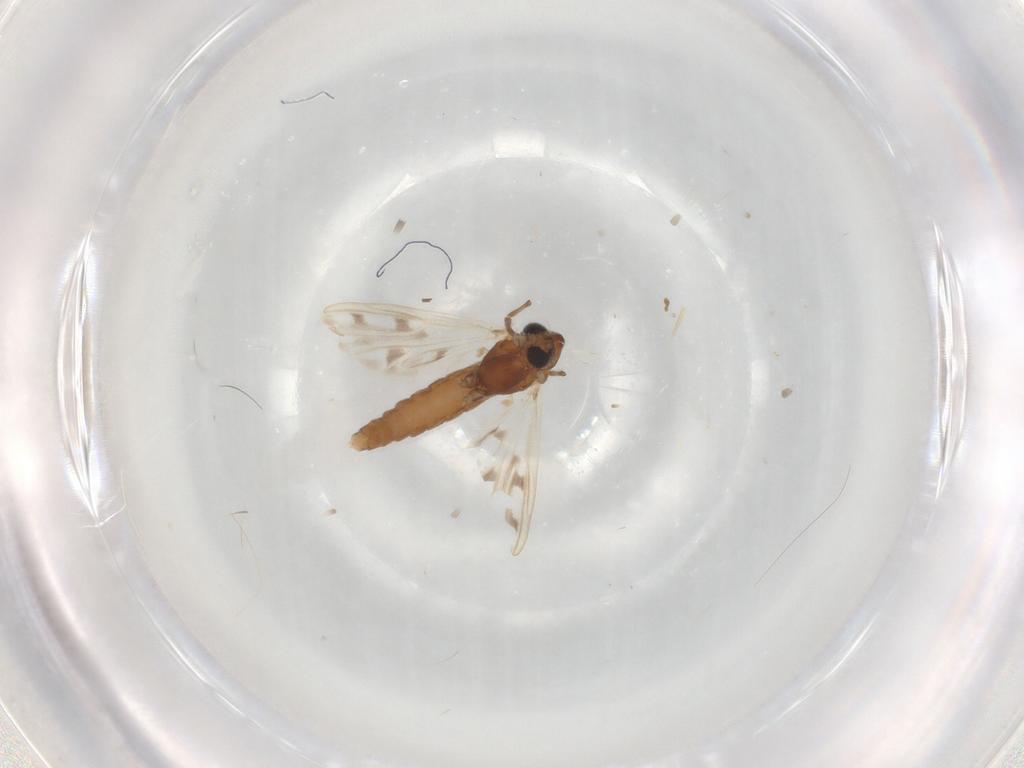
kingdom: Animalia
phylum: Arthropoda
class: Insecta
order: Diptera
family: Chironomidae
